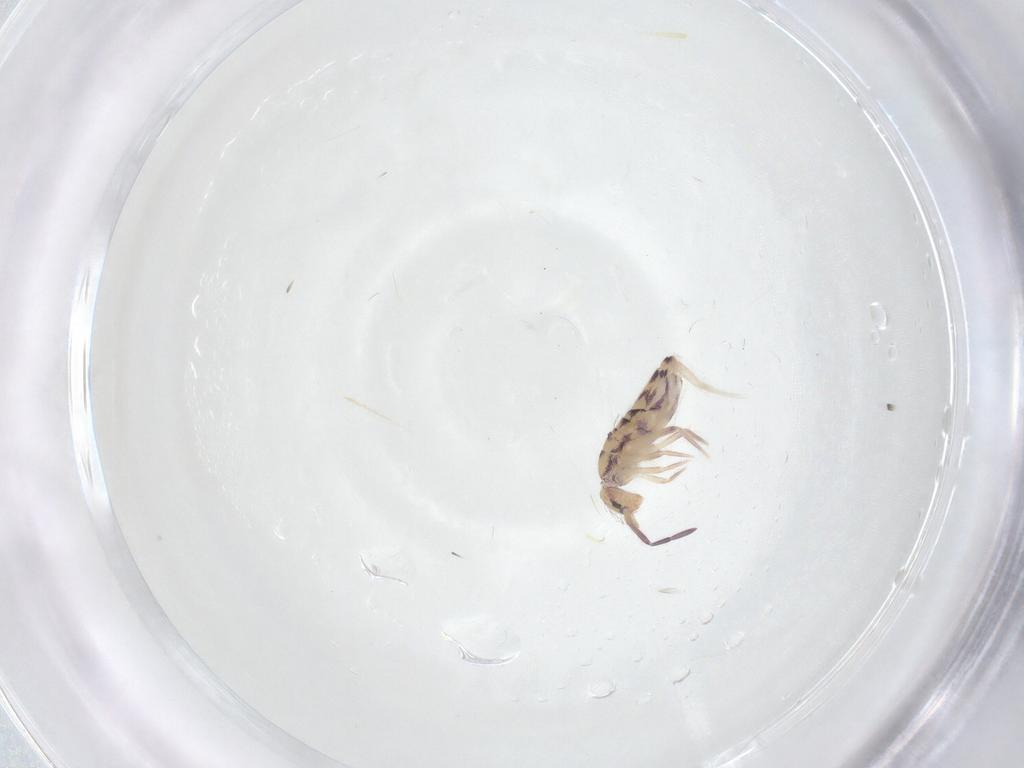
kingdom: Animalia
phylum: Arthropoda
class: Collembola
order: Entomobryomorpha
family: Entomobryidae
